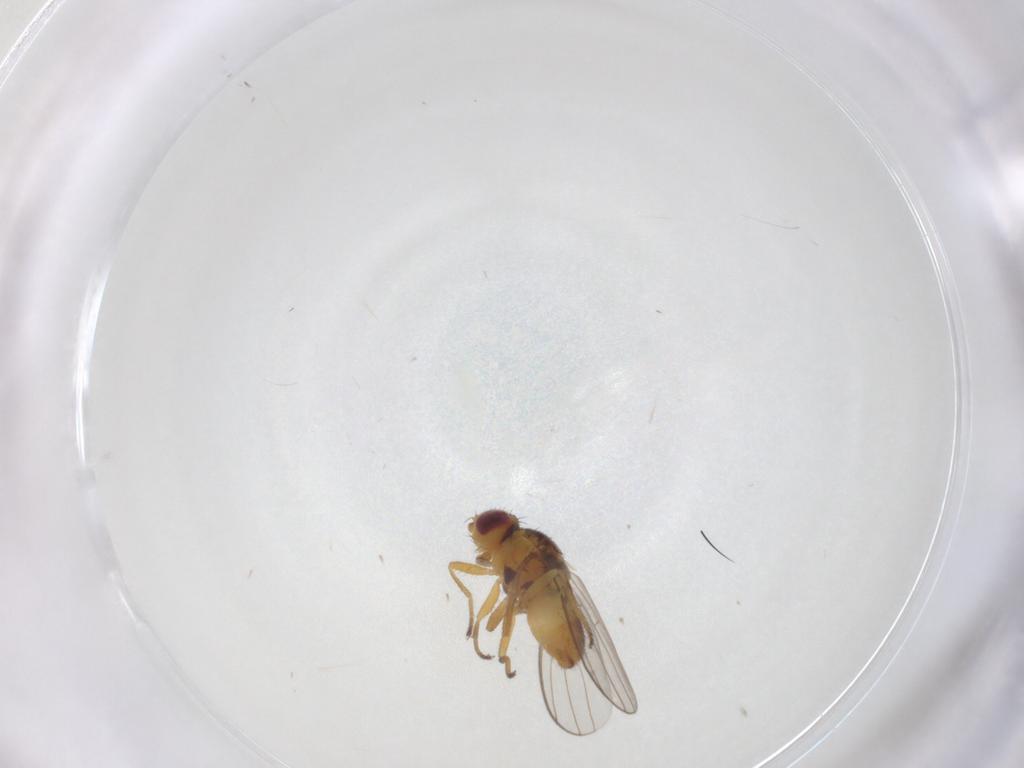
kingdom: Animalia
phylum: Arthropoda
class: Insecta
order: Diptera
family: Chloropidae
